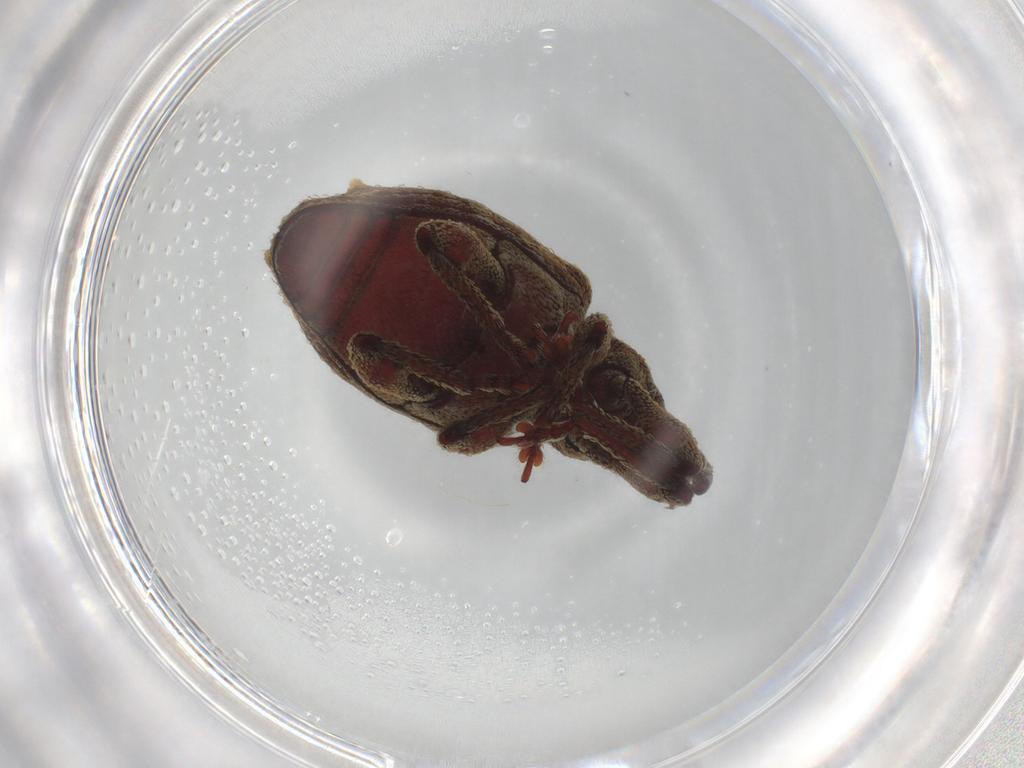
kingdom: Animalia
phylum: Arthropoda
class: Insecta
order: Coleoptera
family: Curculionidae
